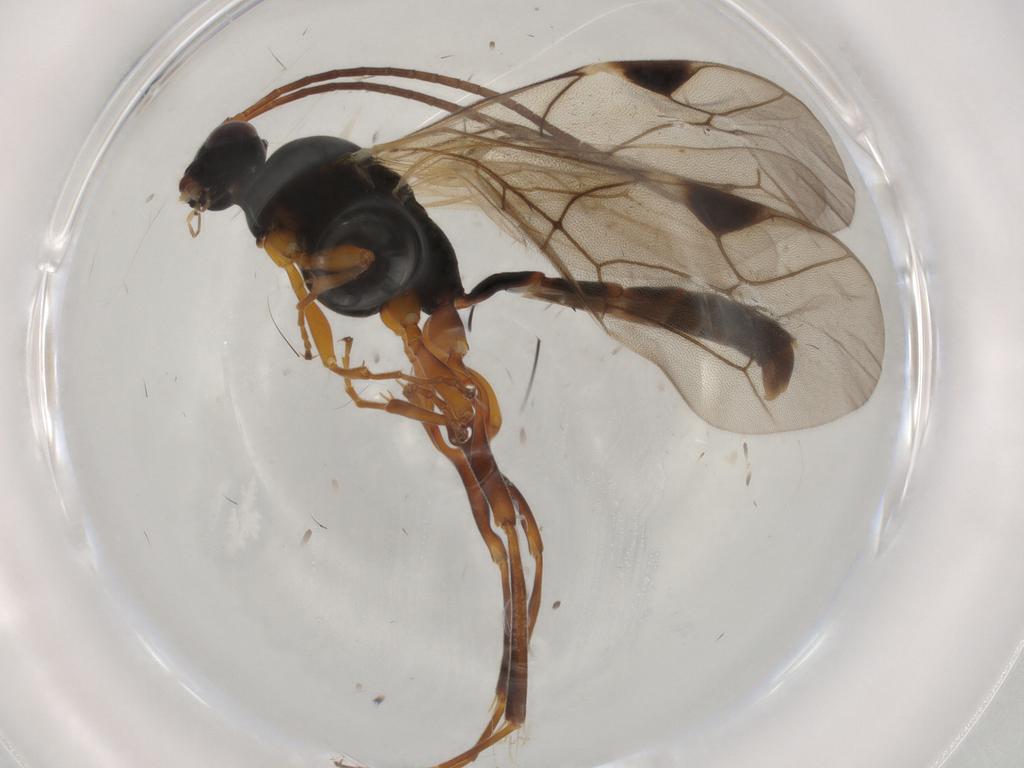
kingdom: Animalia
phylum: Arthropoda
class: Insecta
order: Hymenoptera
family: Ichneumonidae
